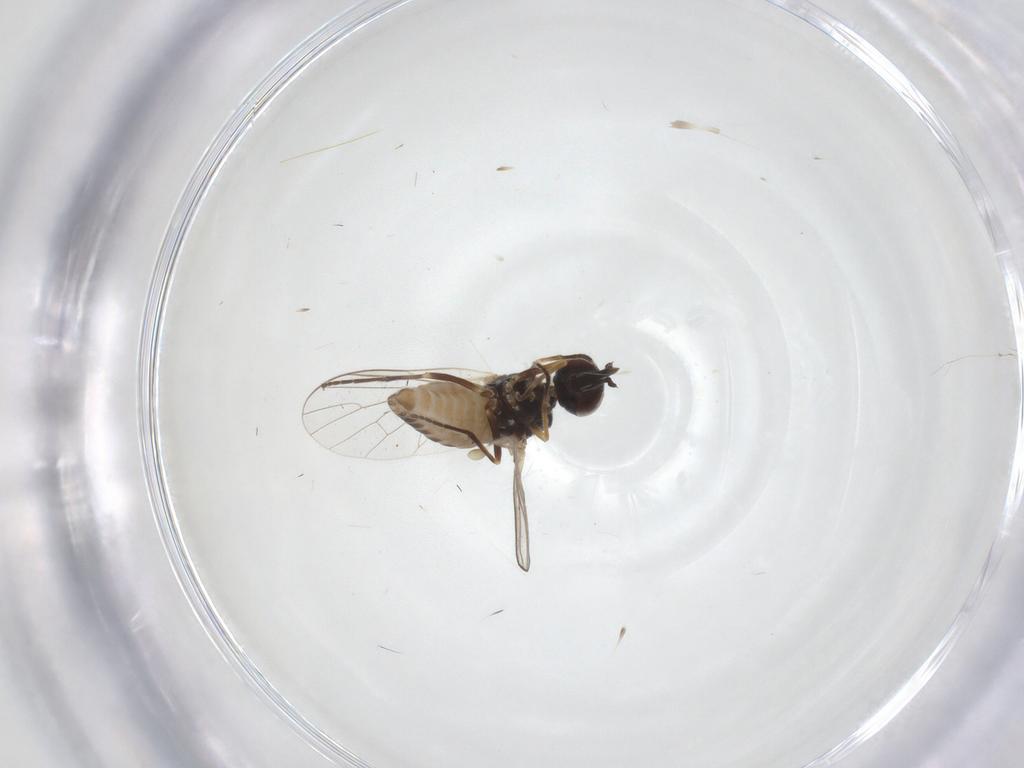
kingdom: Animalia
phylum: Arthropoda
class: Insecta
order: Diptera
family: Bombyliidae
